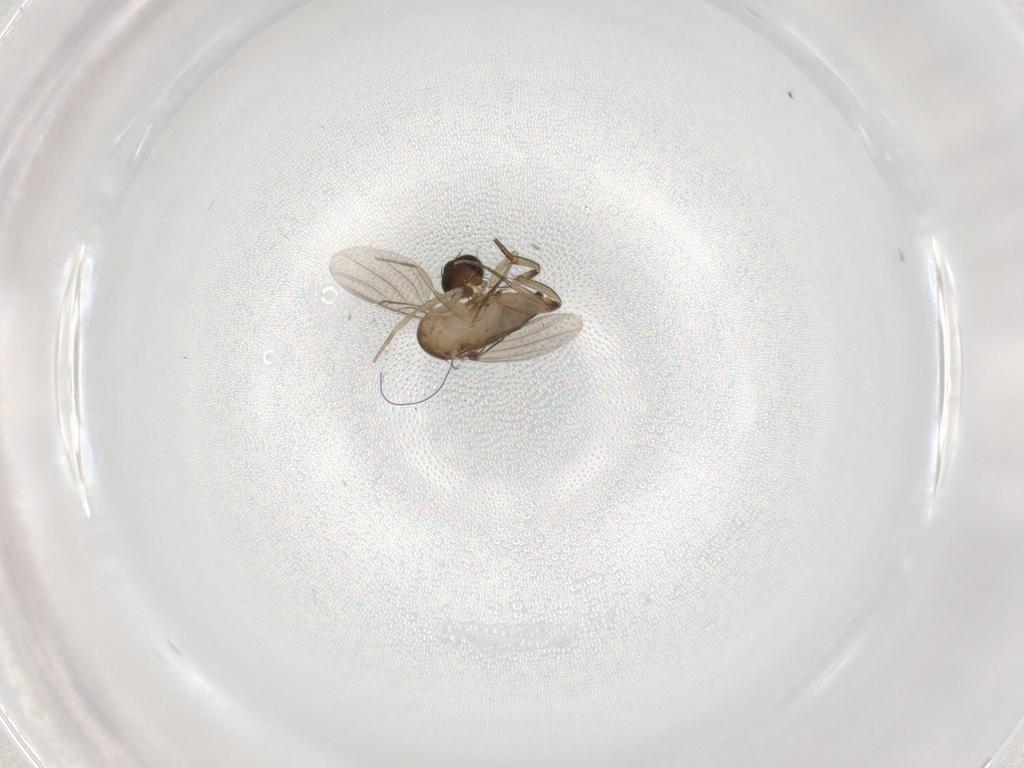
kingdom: Animalia
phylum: Arthropoda
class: Insecta
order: Diptera
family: Phoridae
